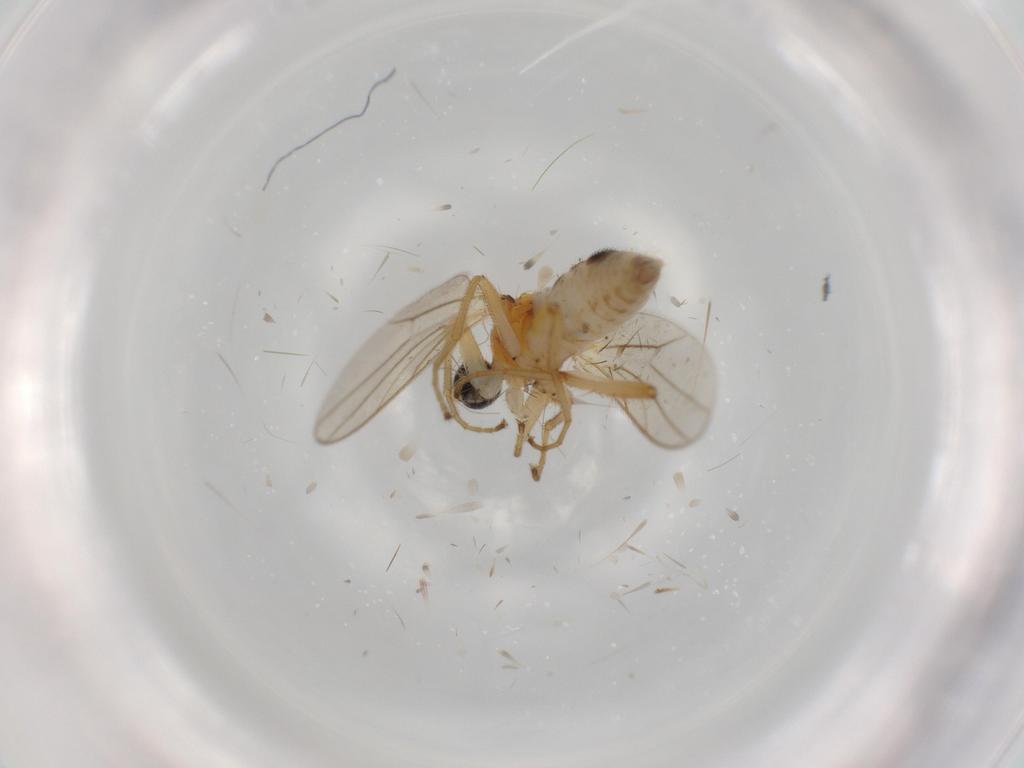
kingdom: Animalia
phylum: Arthropoda
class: Insecta
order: Diptera
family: Hybotidae
